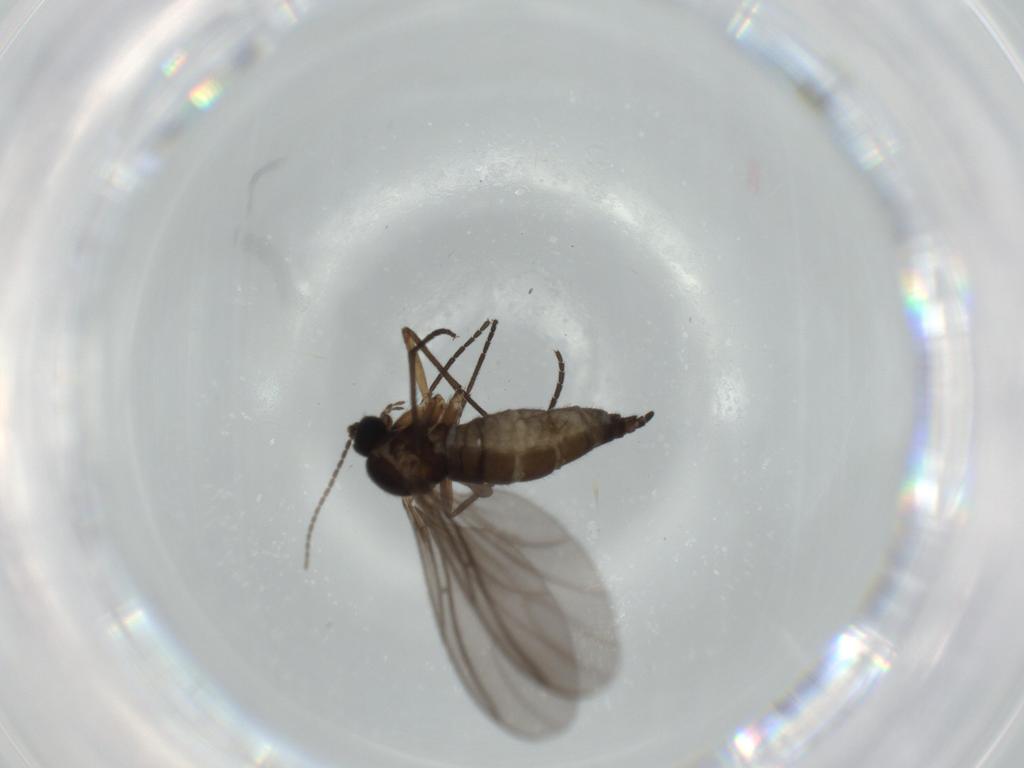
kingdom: Animalia
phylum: Arthropoda
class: Insecta
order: Diptera
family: Sciaridae
